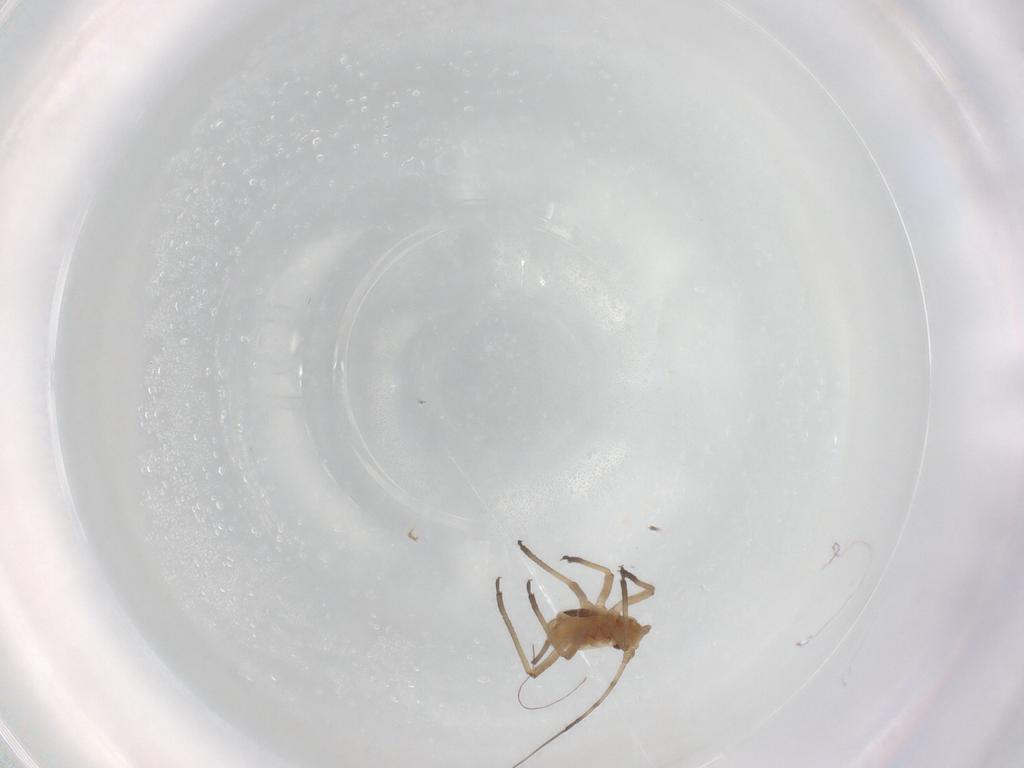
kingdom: Animalia
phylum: Arthropoda
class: Insecta
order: Hemiptera
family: Aphididae
